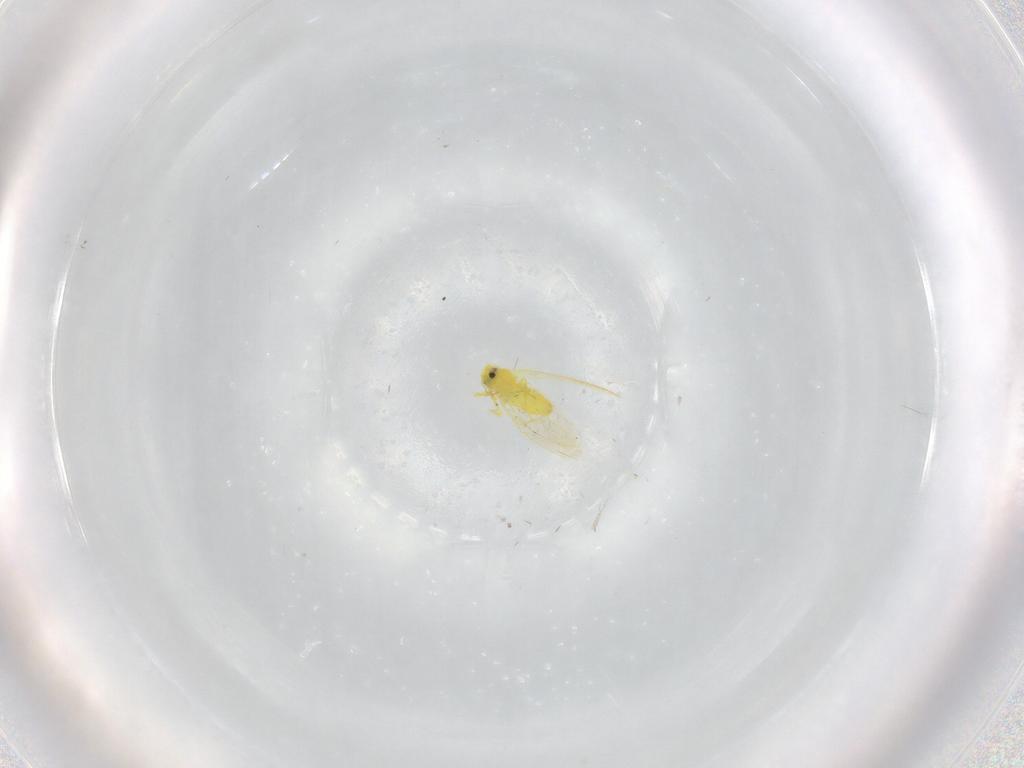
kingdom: Animalia
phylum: Arthropoda
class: Insecta
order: Hemiptera
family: Aleyrodidae
